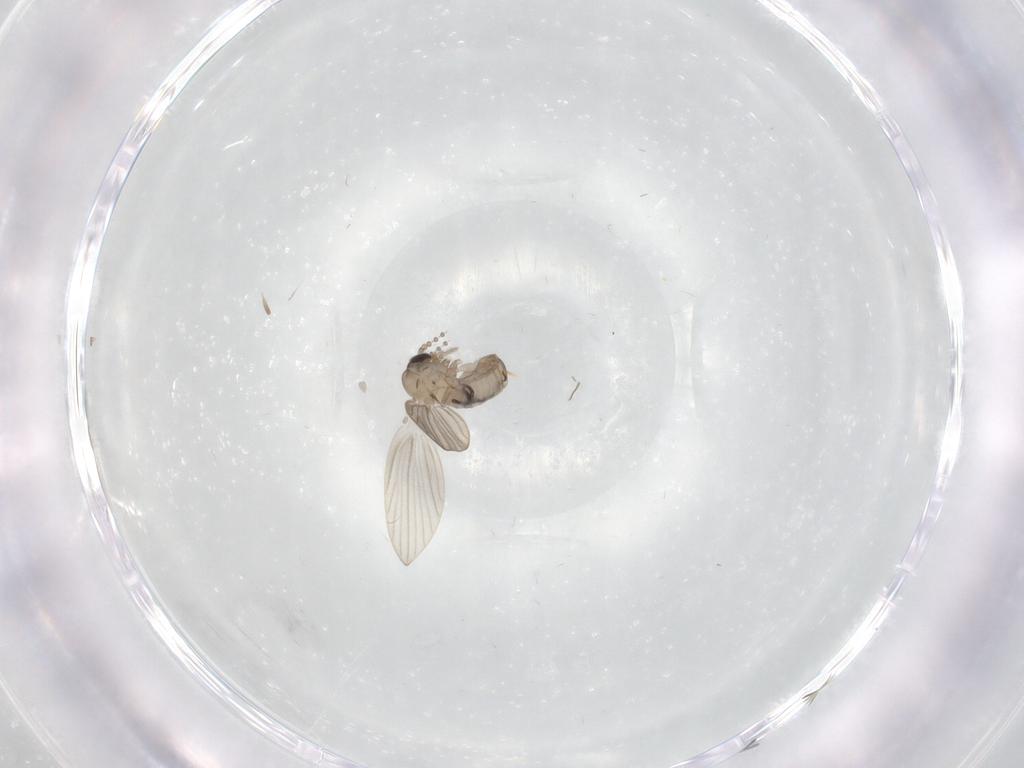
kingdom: Animalia
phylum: Arthropoda
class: Insecta
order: Diptera
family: Psychodidae
